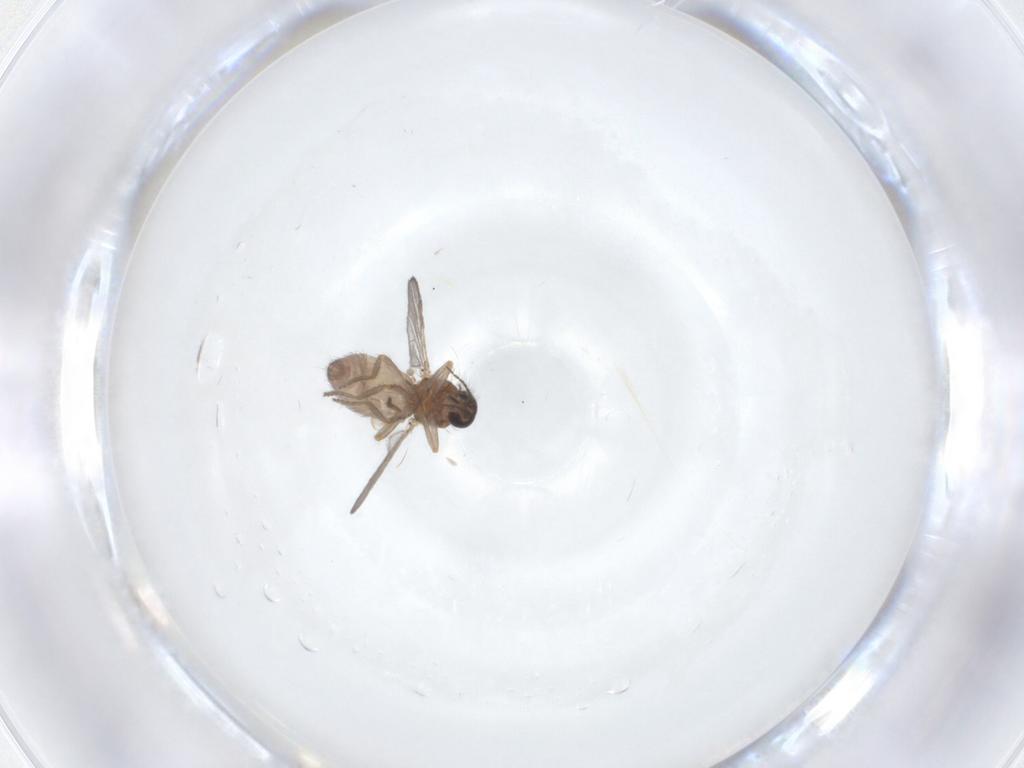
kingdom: Animalia
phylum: Arthropoda
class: Insecta
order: Diptera
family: Ceratopogonidae
